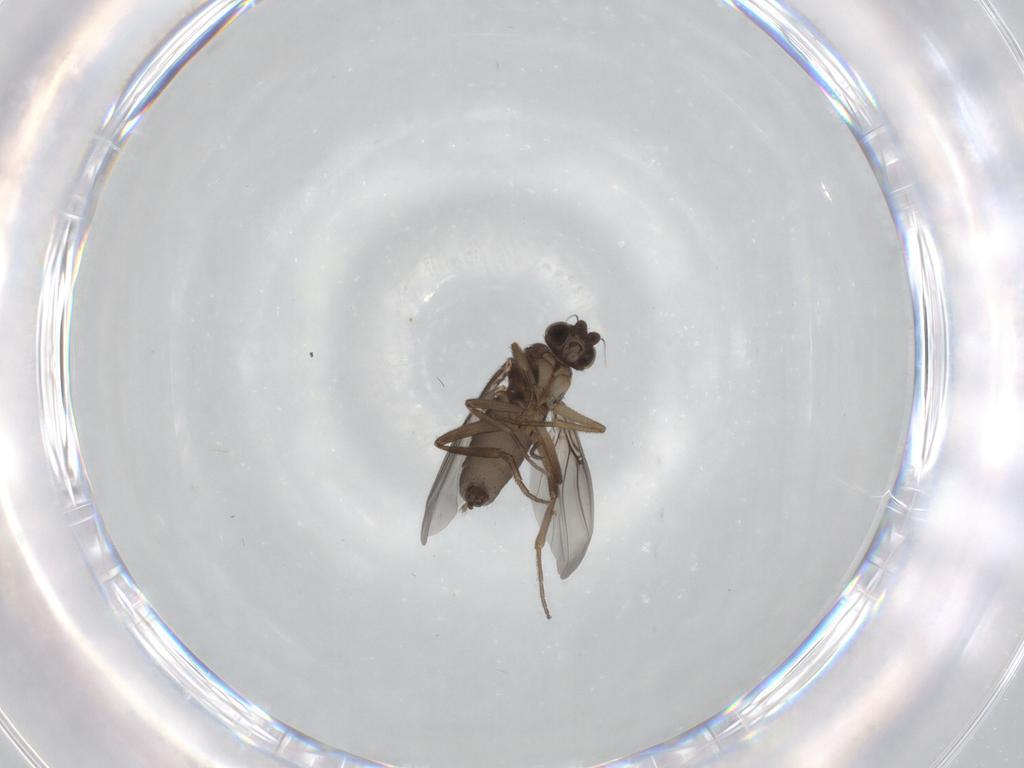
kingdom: Animalia
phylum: Arthropoda
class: Insecta
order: Diptera
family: Phoridae
